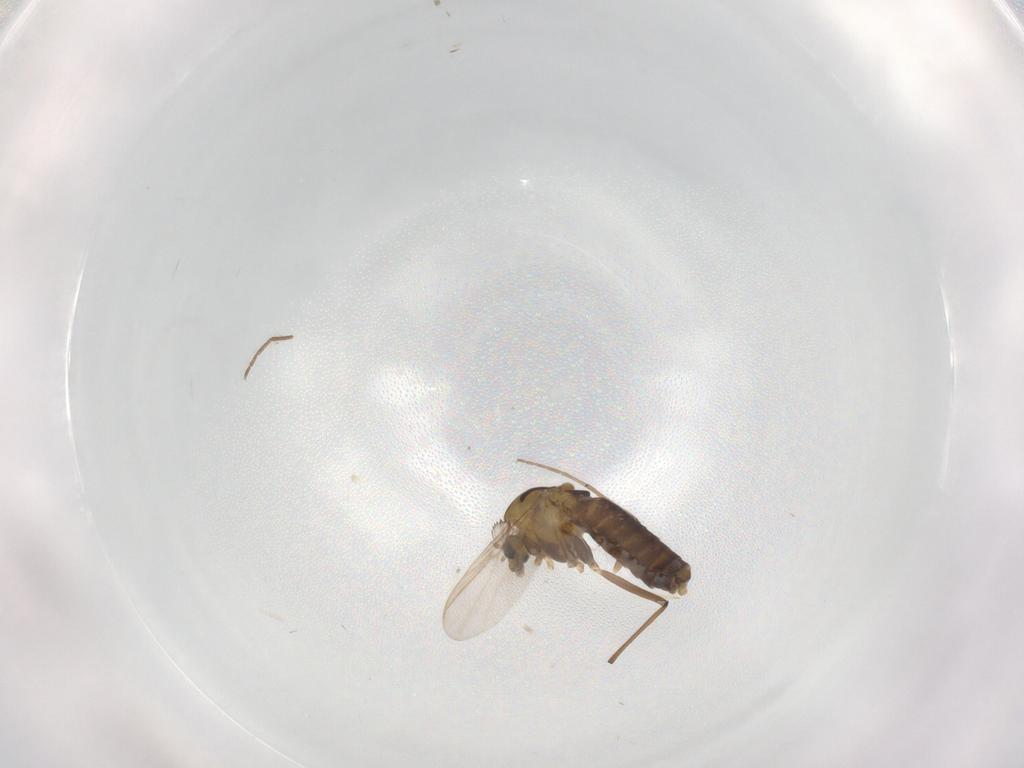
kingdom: Animalia
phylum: Arthropoda
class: Insecta
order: Diptera
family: Chironomidae
